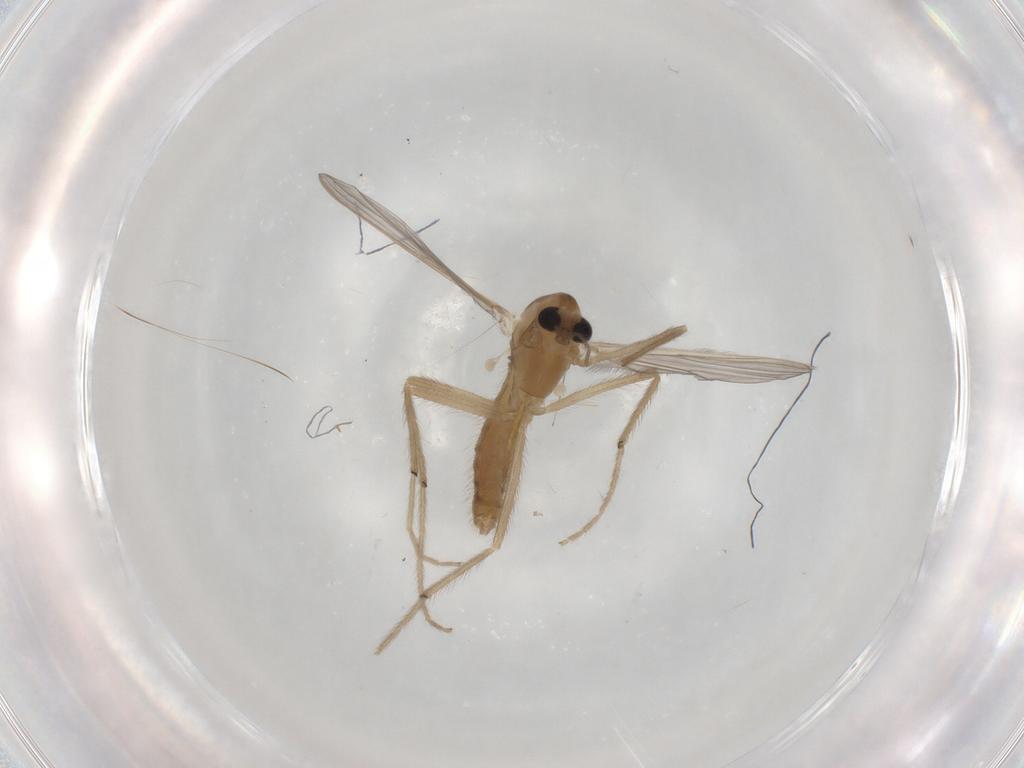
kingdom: Animalia
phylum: Arthropoda
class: Insecta
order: Diptera
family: Chironomidae
